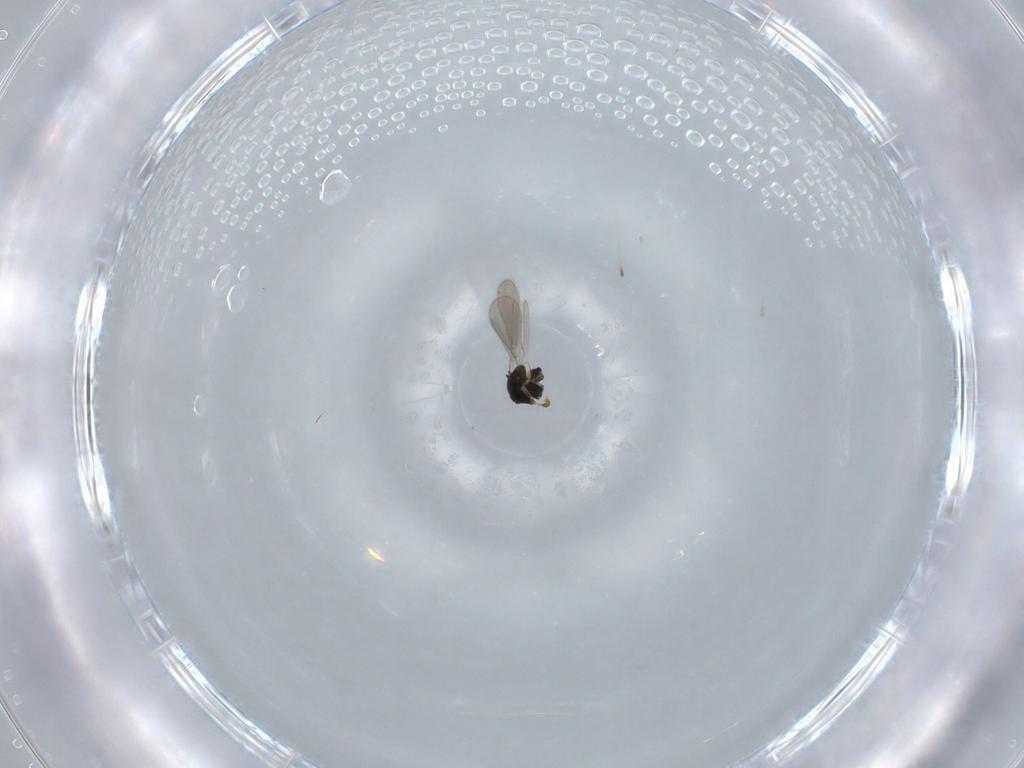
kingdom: Animalia
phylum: Arthropoda
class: Insecta
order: Hymenoptera
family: Platygastridae
